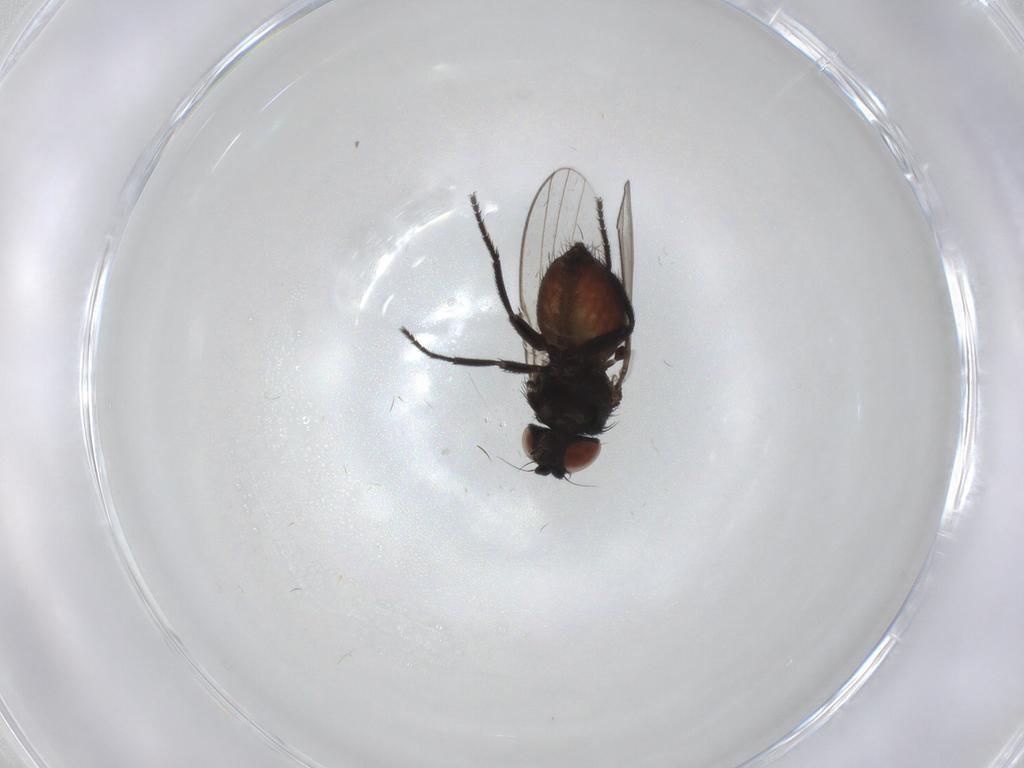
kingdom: Animalia
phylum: Arthropoda
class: Insecta
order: Diptera
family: Milichiidae
